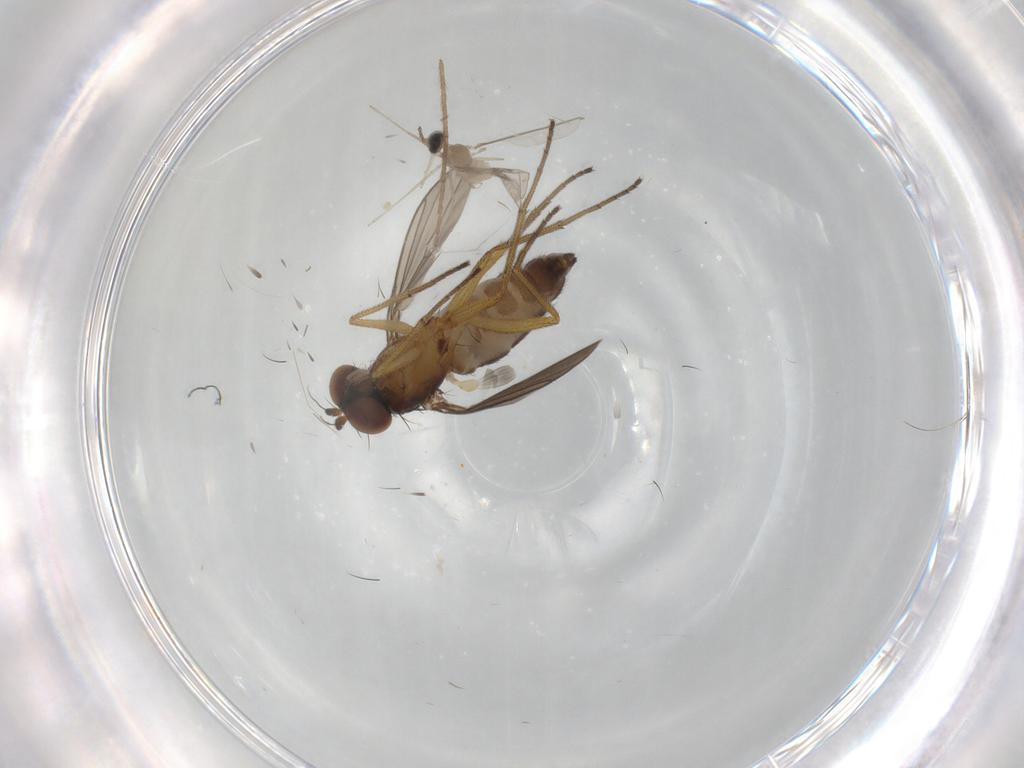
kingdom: Animalia
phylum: Arthropoda
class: Insecta
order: Diptera
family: Dolichopodidae
